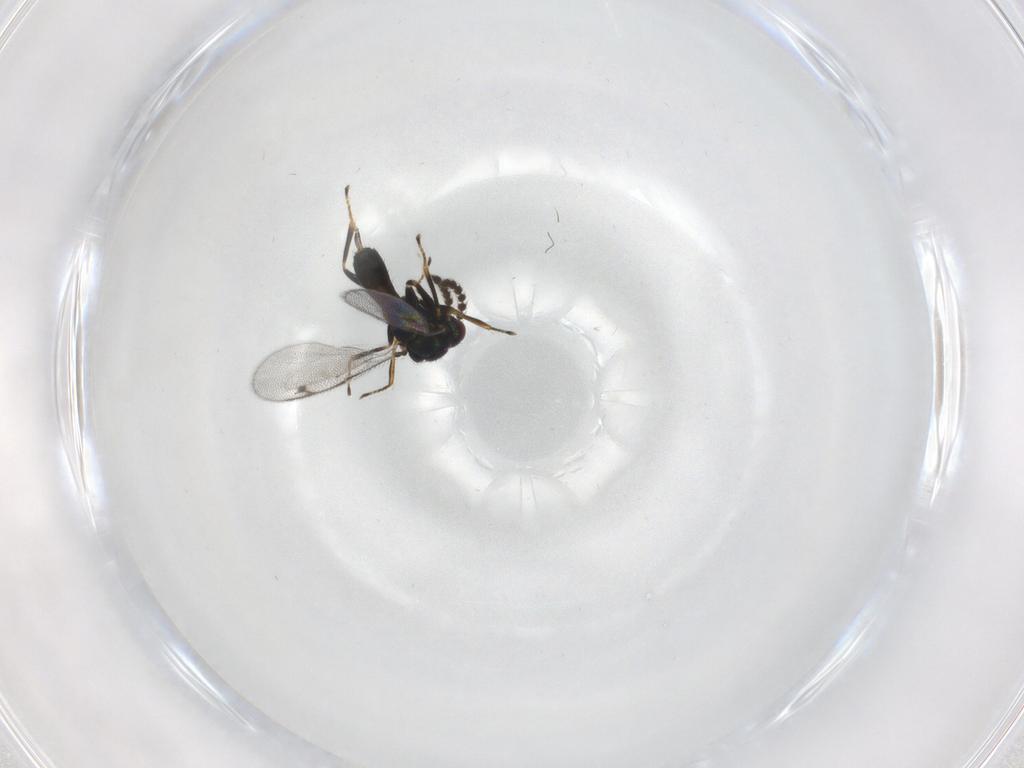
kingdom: Animalia
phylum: Arthropoda
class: Insecta
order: Hymenoptera
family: Pirenidae
